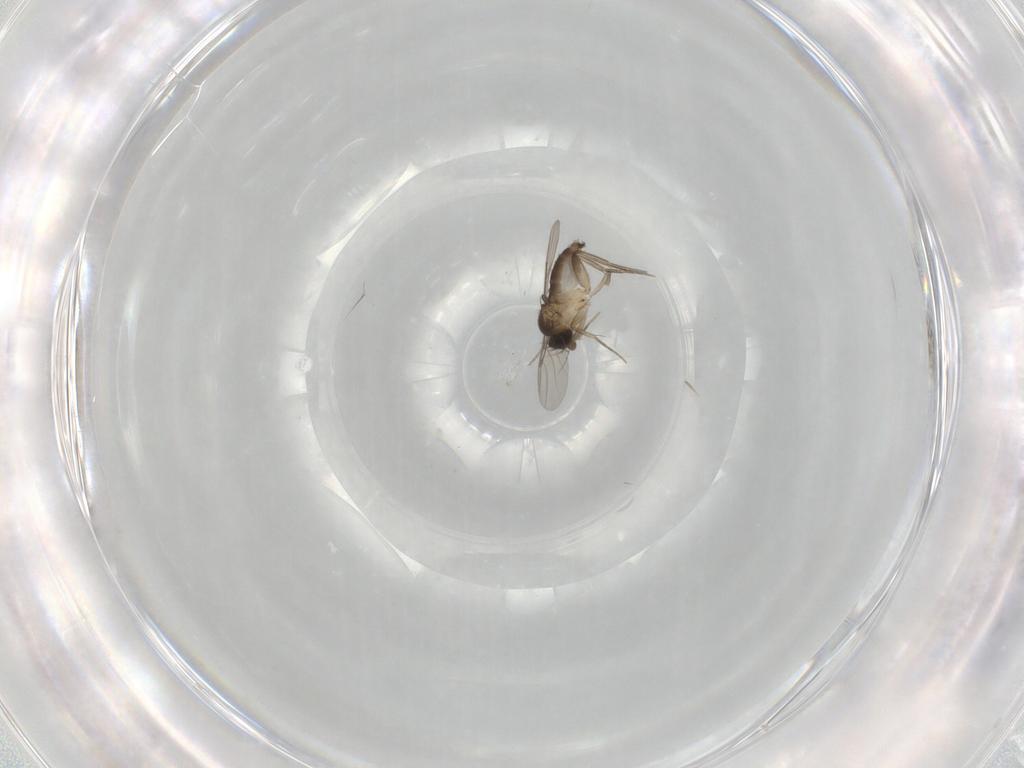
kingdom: Animalia
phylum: Arthropoda
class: Insecta
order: Diptera
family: Phoridae
